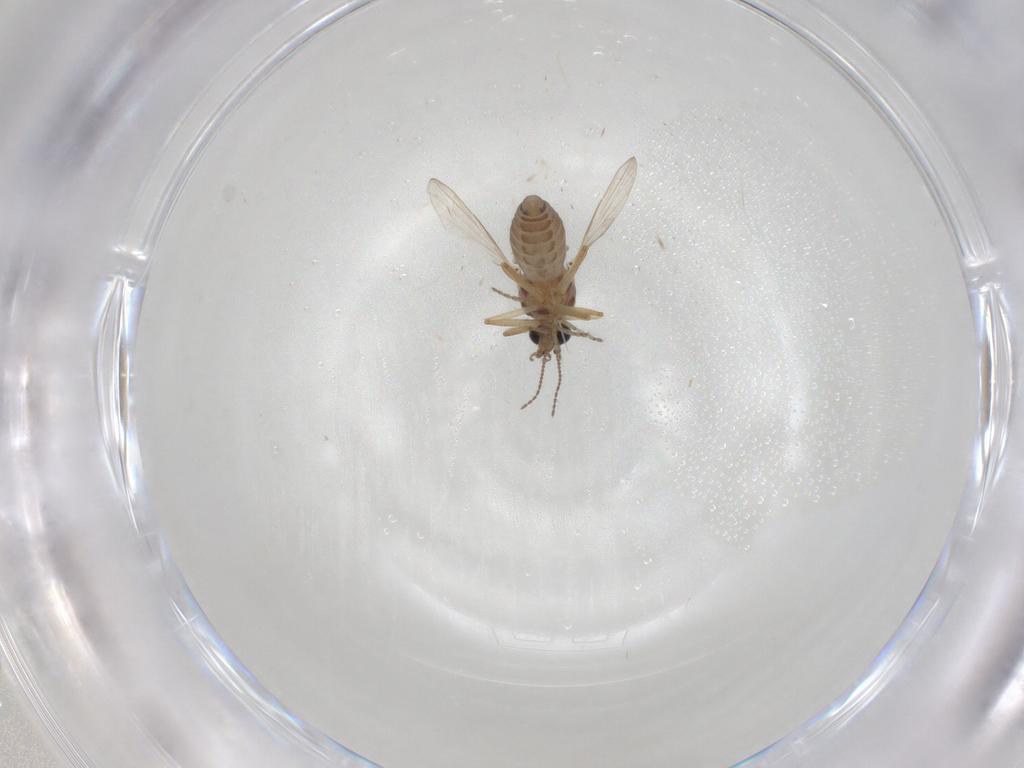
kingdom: Animalia
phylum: Arthropoda
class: Insecta
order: Diptera
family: Ceratopogonidae
